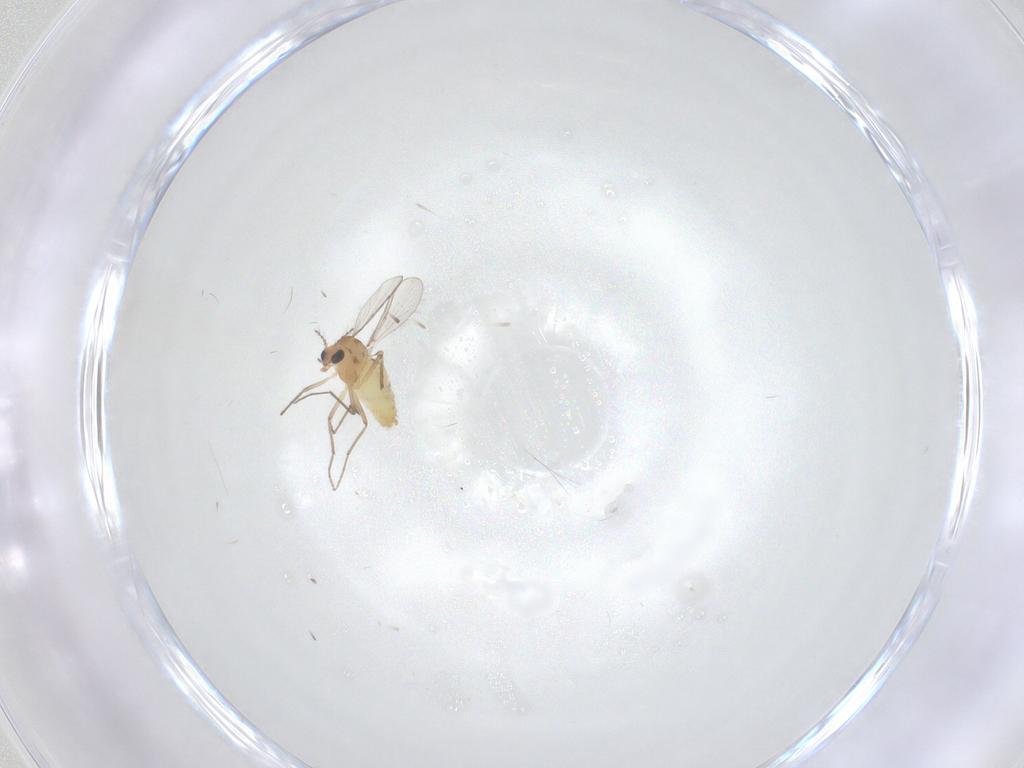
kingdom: Animalia
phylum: Arthropoda
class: Insecta
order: Diptera
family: Chironomidae
